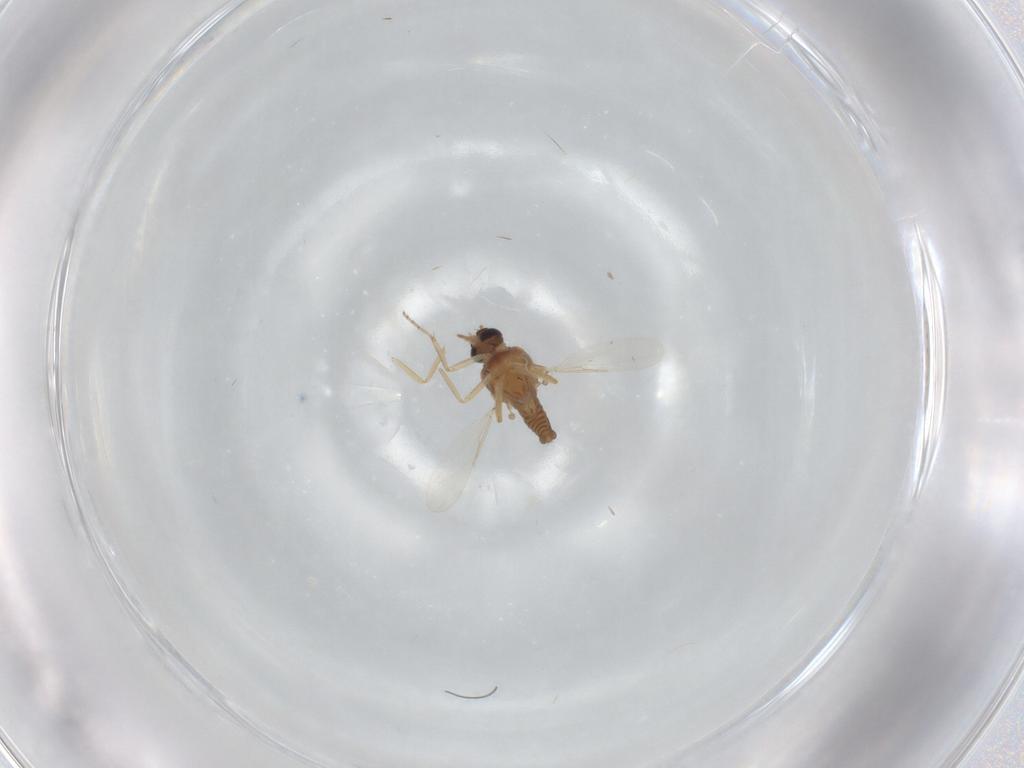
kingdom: Animalia
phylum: Arthropoda
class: Insecta
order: Diptera
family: Ceratopogonidae
